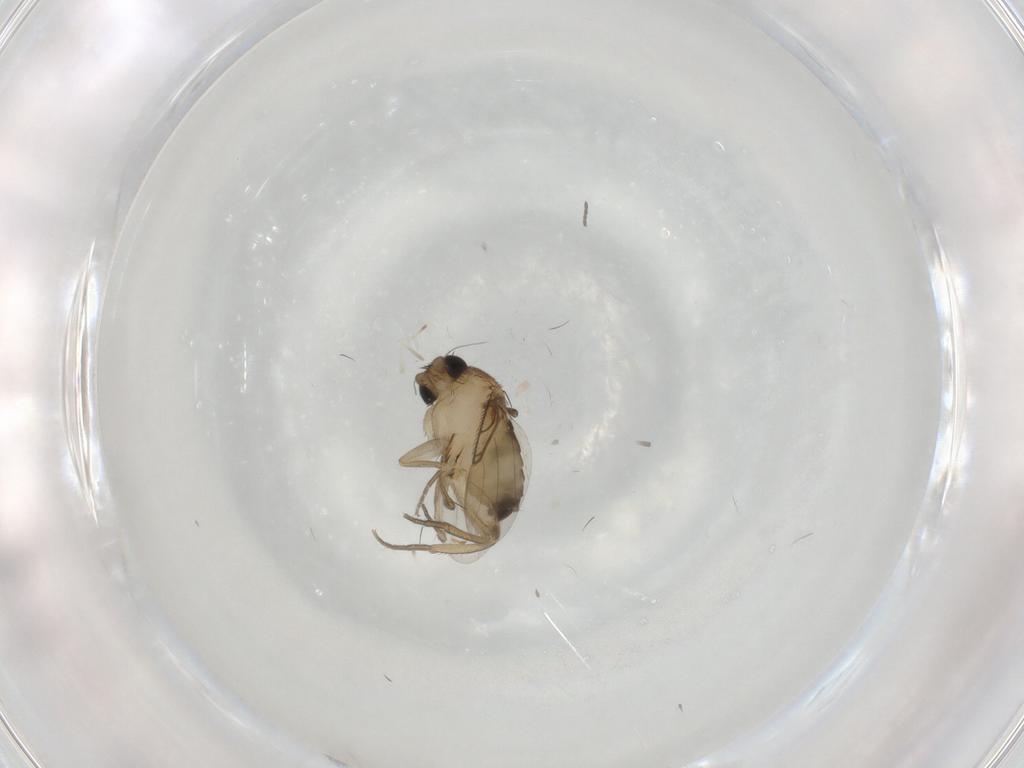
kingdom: Animalia
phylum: Arthropoda
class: Insecta
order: Diptera
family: Phoridae
